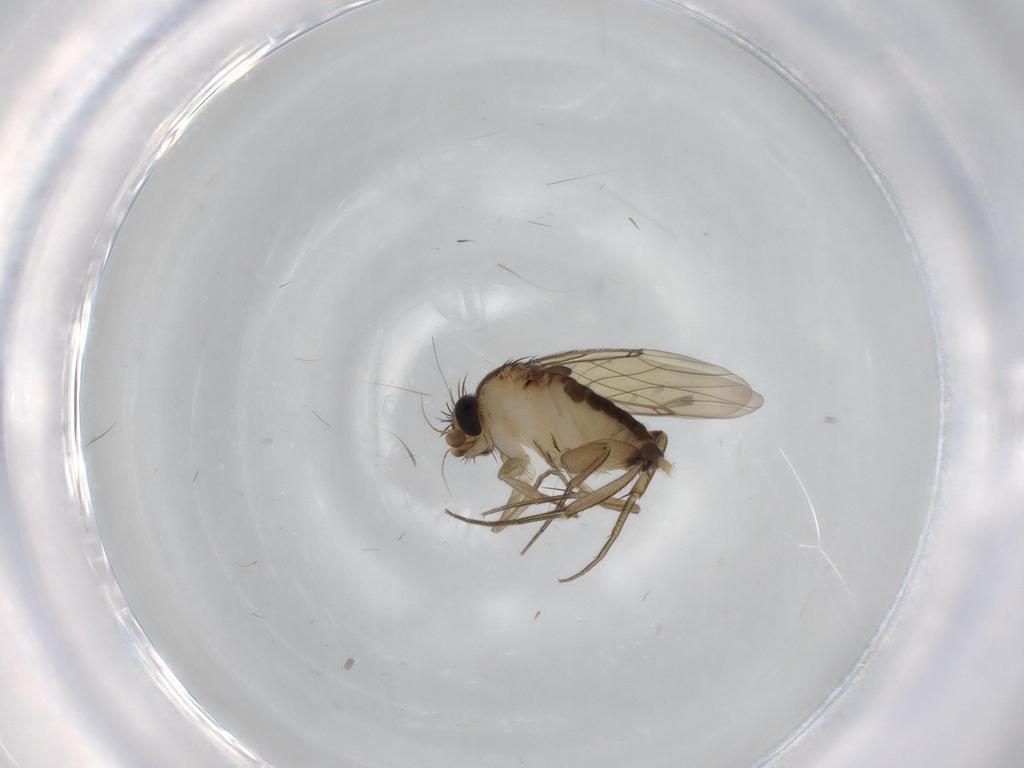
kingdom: Animalia
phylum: Arthropoda
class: Insecta
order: Diptera
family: Phoridae
